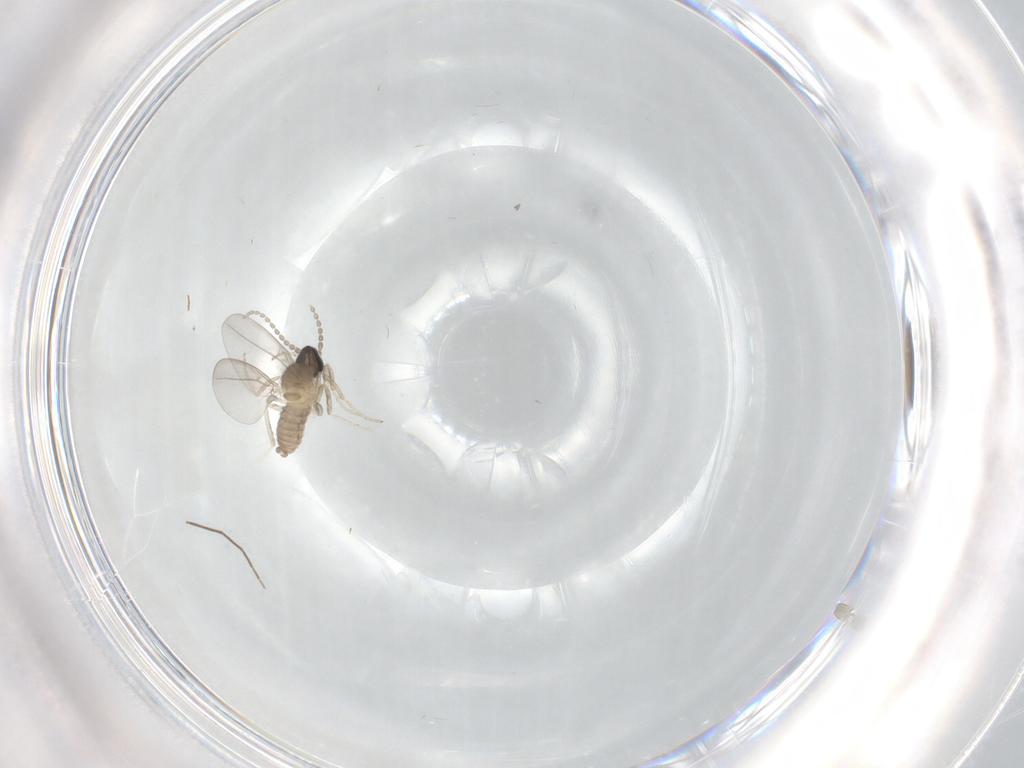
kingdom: Animalia
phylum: Arthropoda
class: Insecta
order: Diptera
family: Cecidomyiidae
